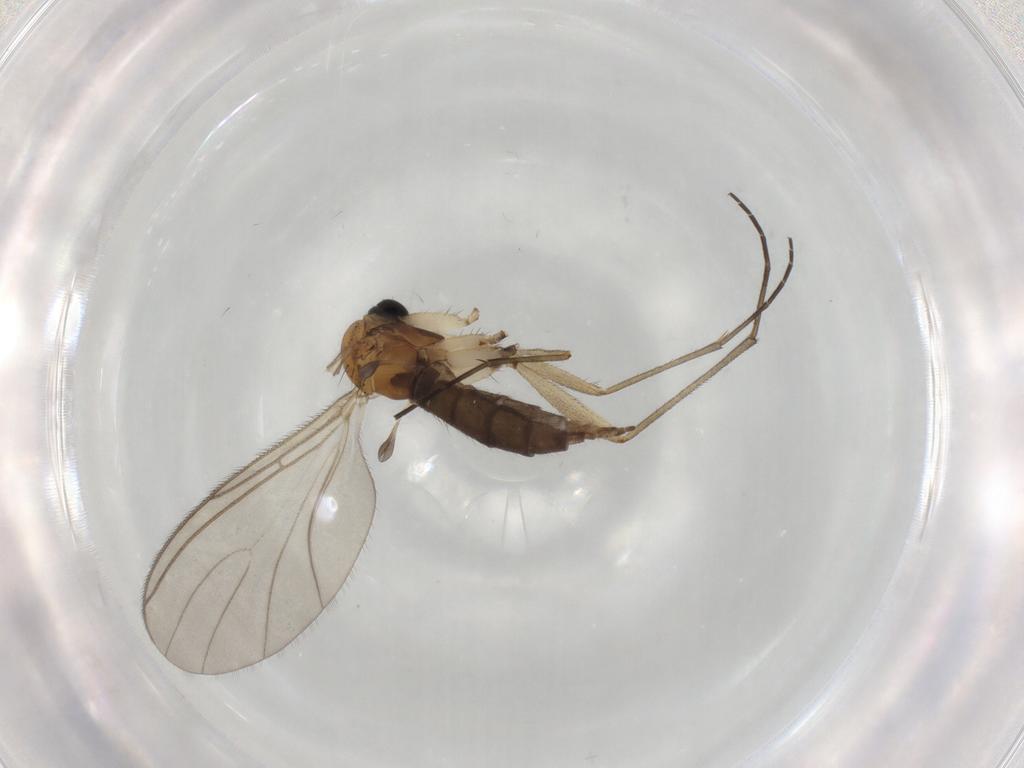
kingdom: Animalia
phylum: Arthropoda
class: Insecta
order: Diptera
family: Sciaridae
